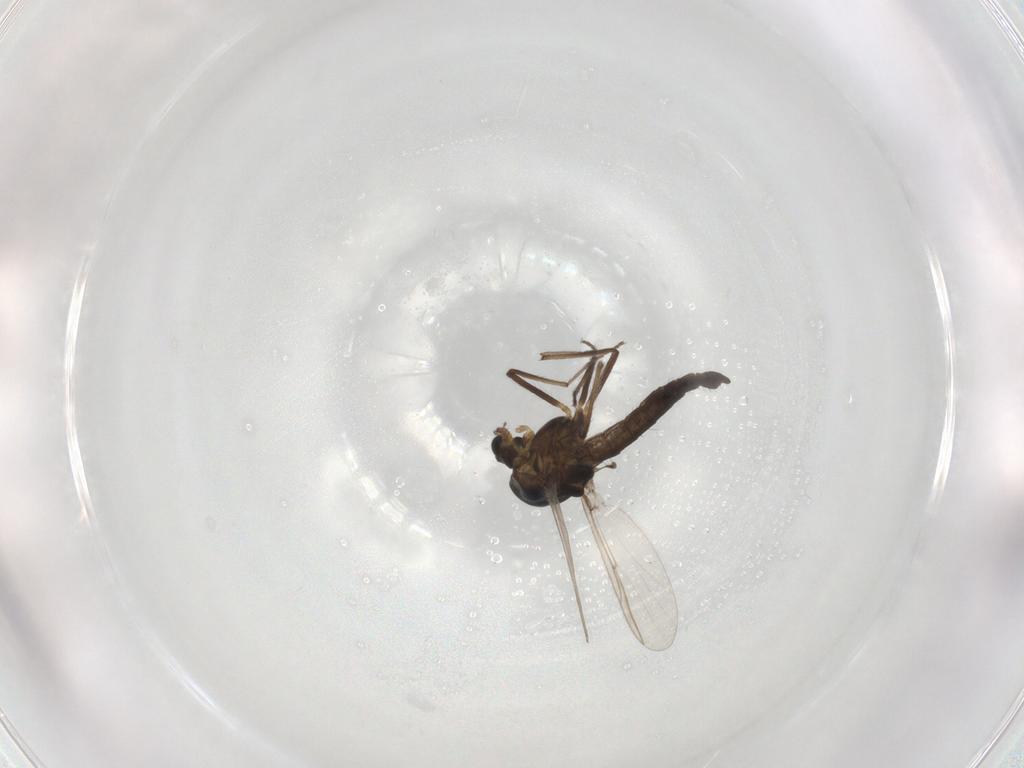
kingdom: Animalia
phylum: Arthropoda
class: Insecta
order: Diptera
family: Chironomidae
